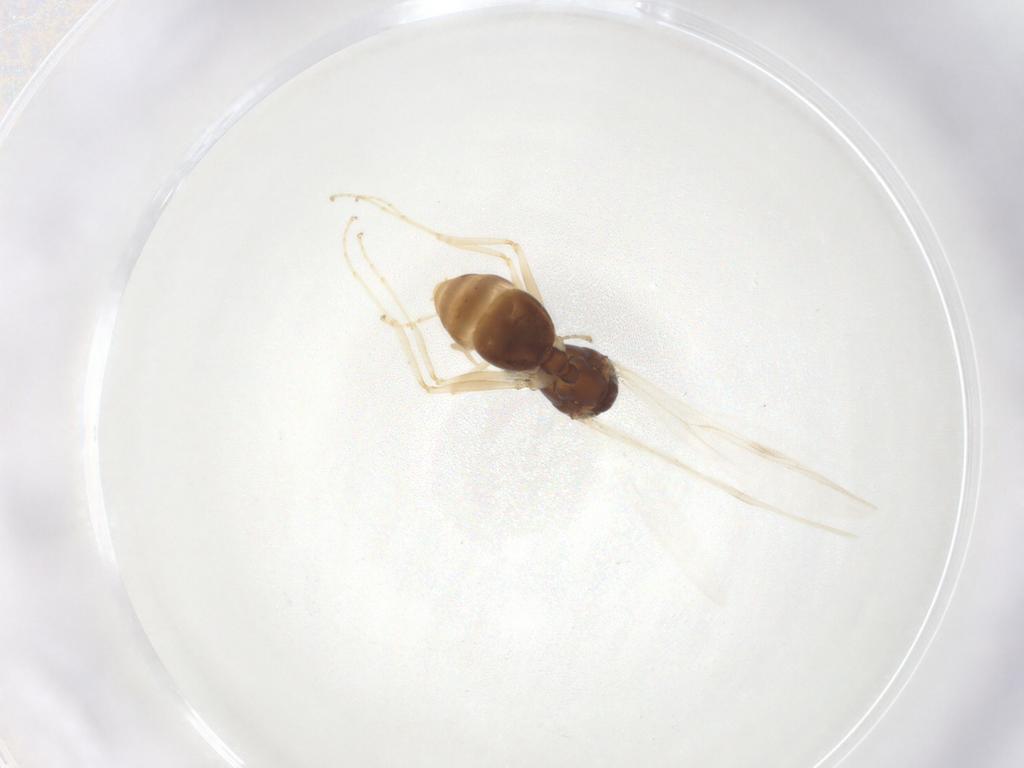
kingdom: Animalia
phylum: Arthropoda
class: Insecta
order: Hymenoptera
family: Formicidae
